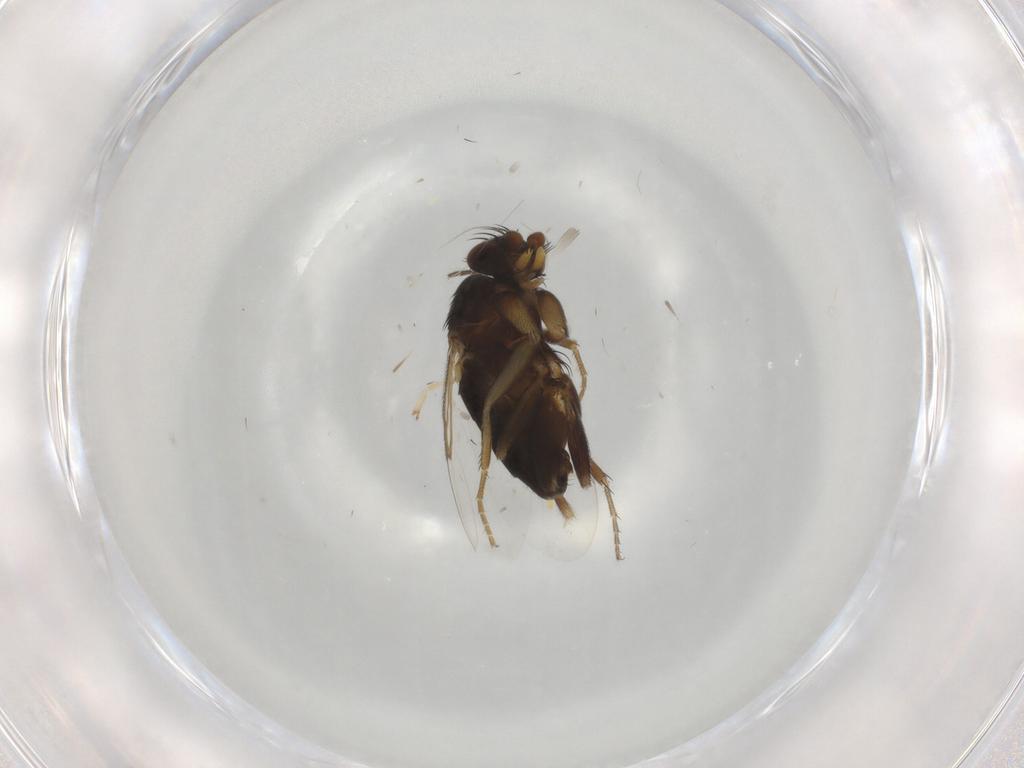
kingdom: Animalia
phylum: Arthropoda
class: Insecta
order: Diptera
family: Phoridae
